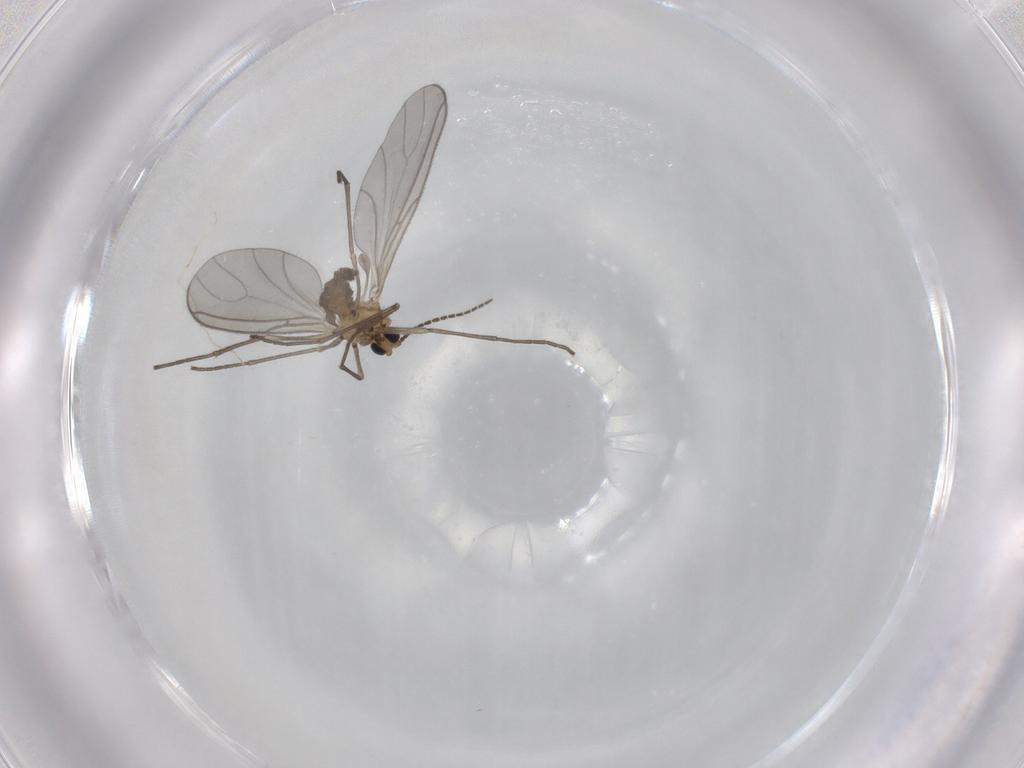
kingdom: Animalia
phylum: Arthropoda
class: Insecta
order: Diptera
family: Sciaridae
